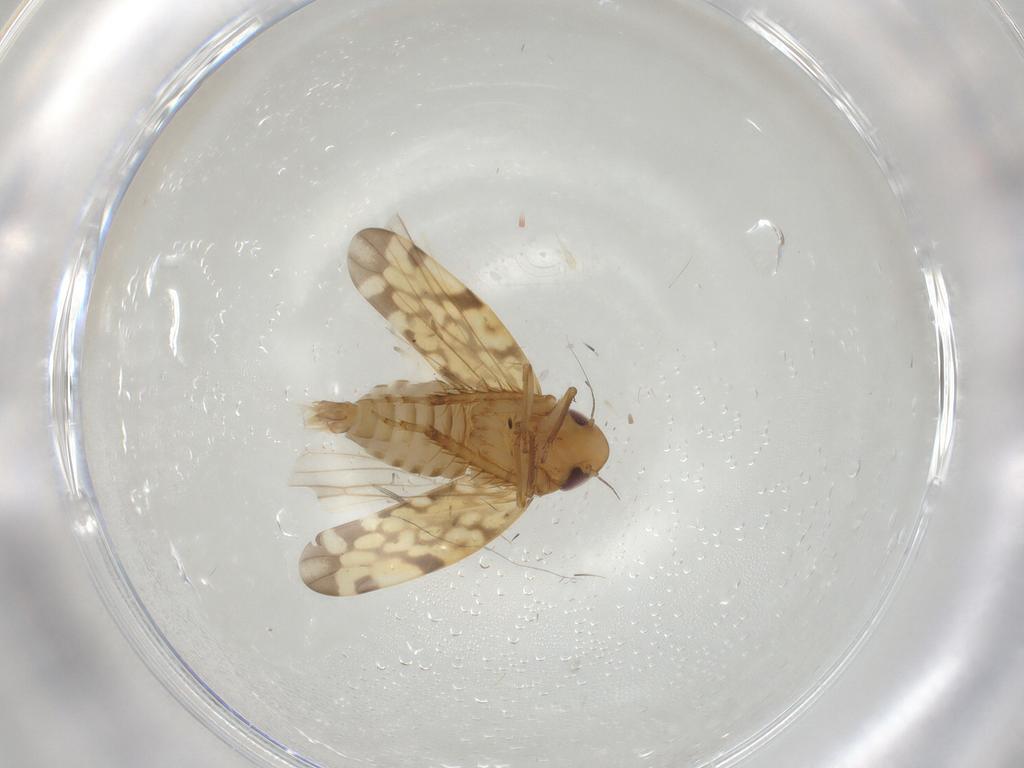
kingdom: Animalia
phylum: Arthropoda
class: Insecta
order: Hemiptera
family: Cicadellidae
